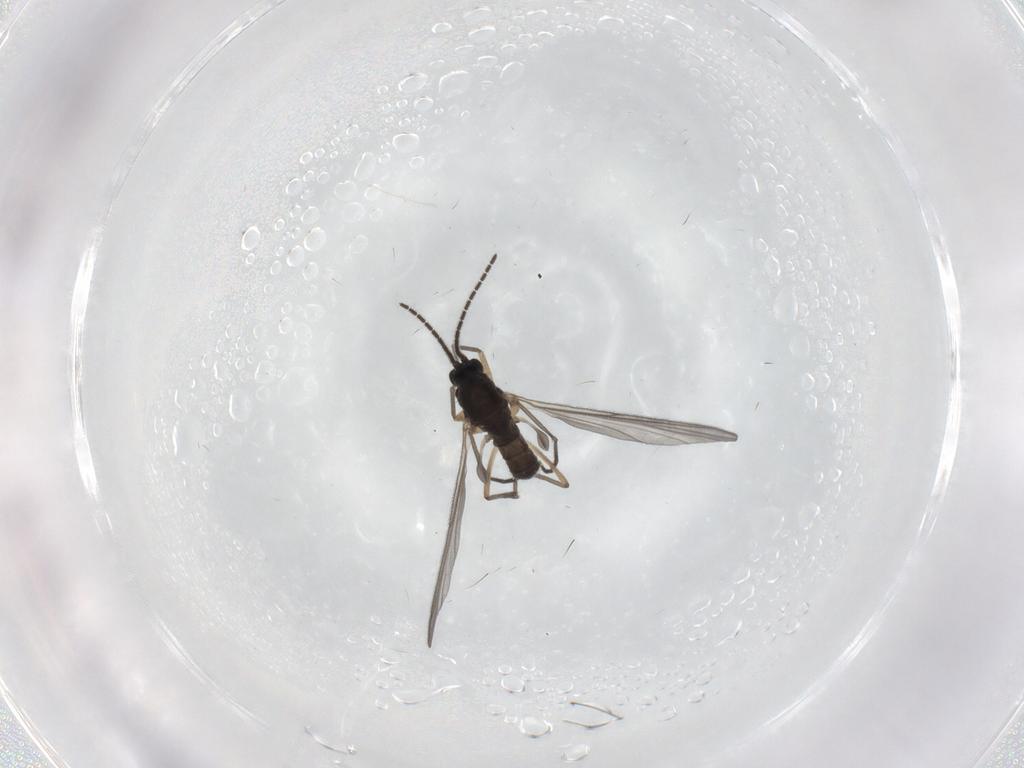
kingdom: Animalia
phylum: Arthropoda
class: Insecta
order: Diptera
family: Sciaridae
